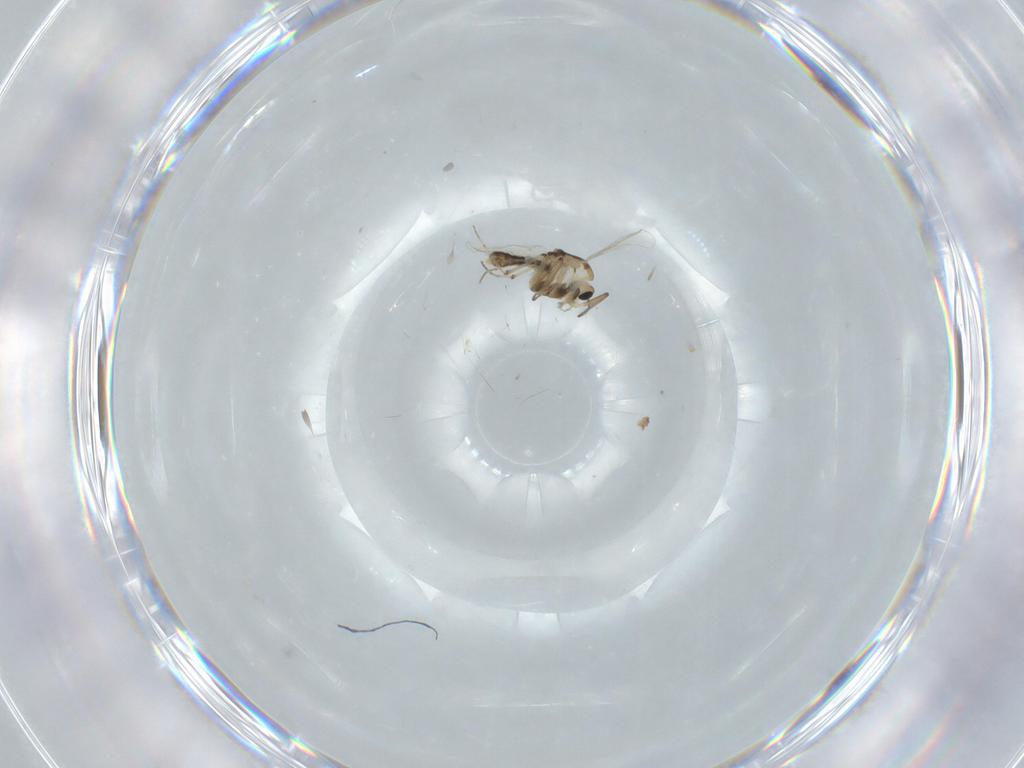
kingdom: Animalia
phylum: Arthropoda
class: Insecta
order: Diptera
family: Chironomidae
